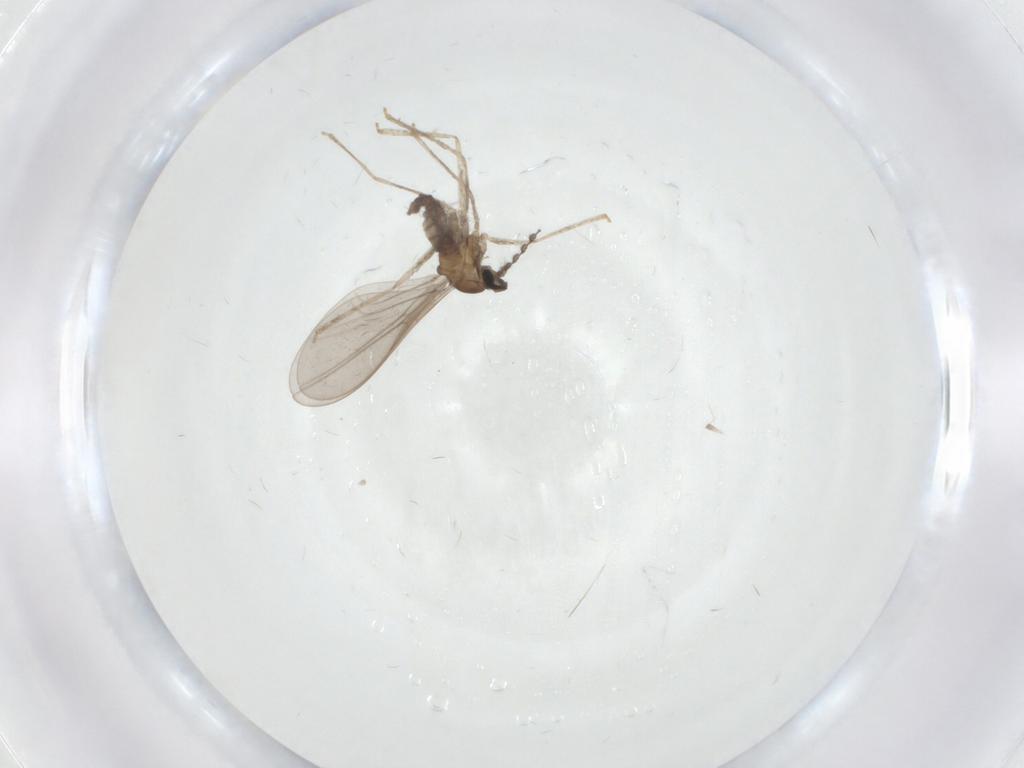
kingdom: Animalia
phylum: Arthropoda
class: Insecta
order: Diptera
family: Cecidomyiidae
